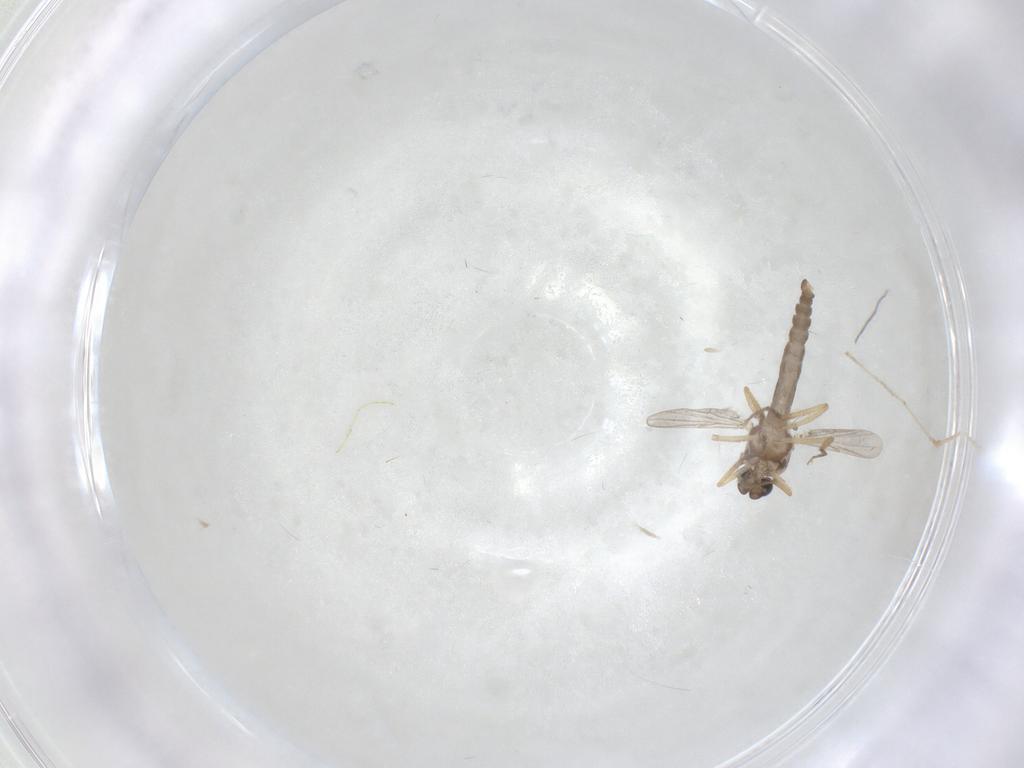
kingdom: Animalia
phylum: Arthropoda
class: Insecta
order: Diptera
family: Ceratopogonidae
